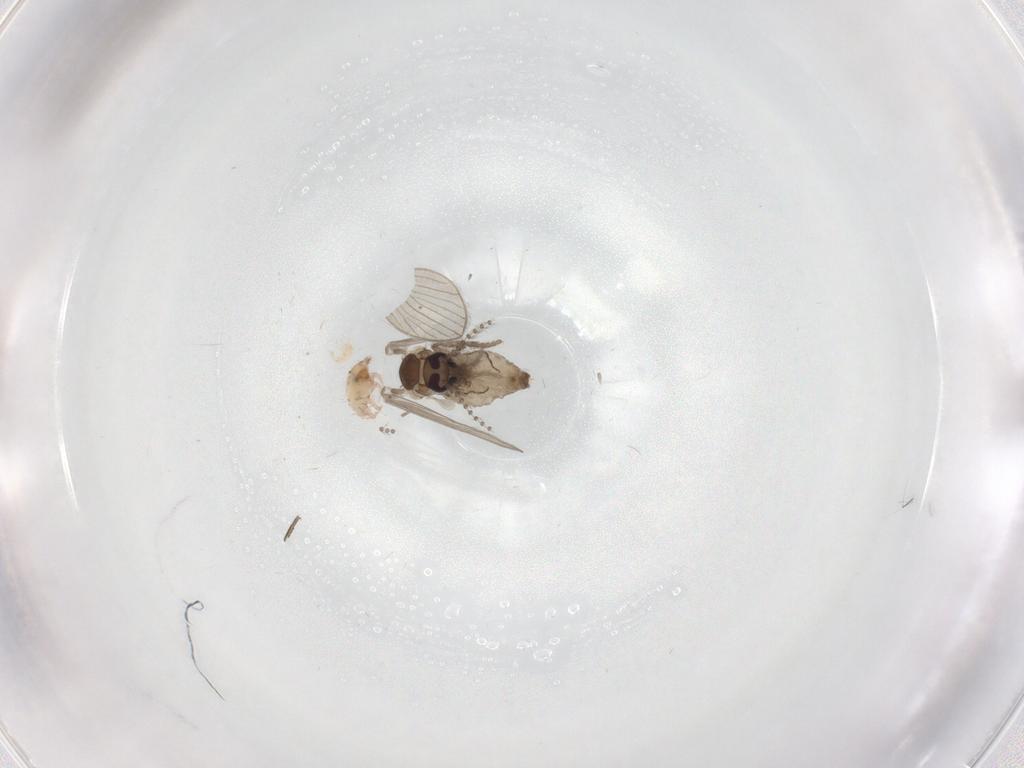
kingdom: Animalia
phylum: Arthropoda
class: Insecta
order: Diptera
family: Psychodidae
